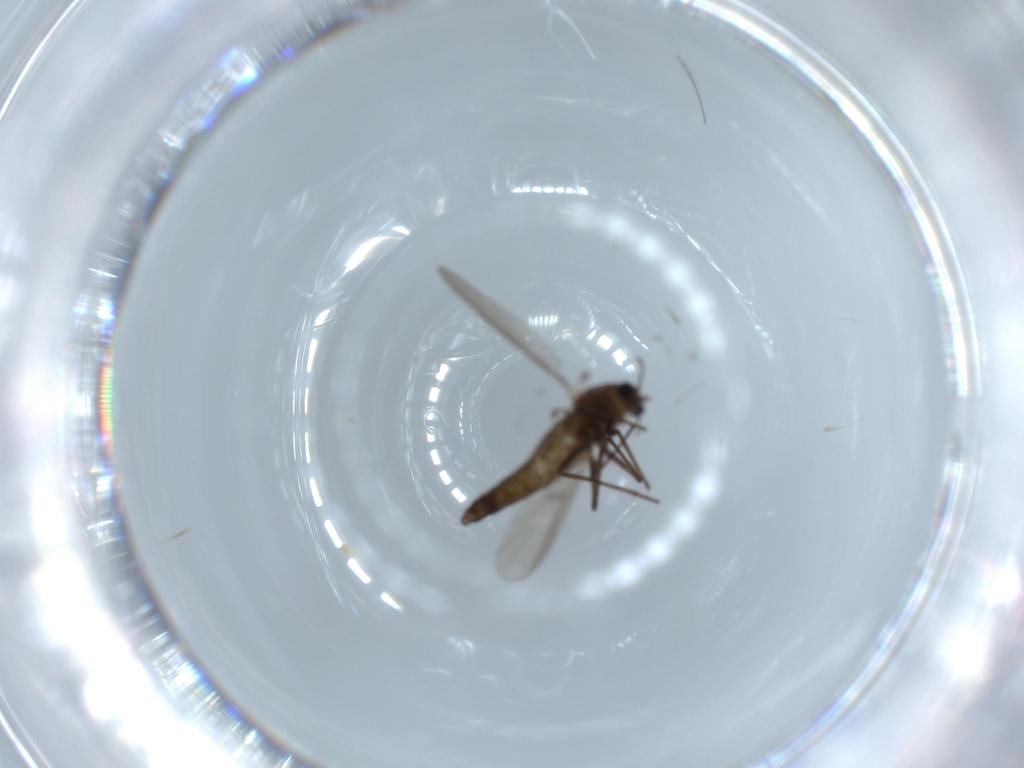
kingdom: Animalia
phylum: Arthropoda
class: Insecta
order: Diptera
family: Chironomidae
